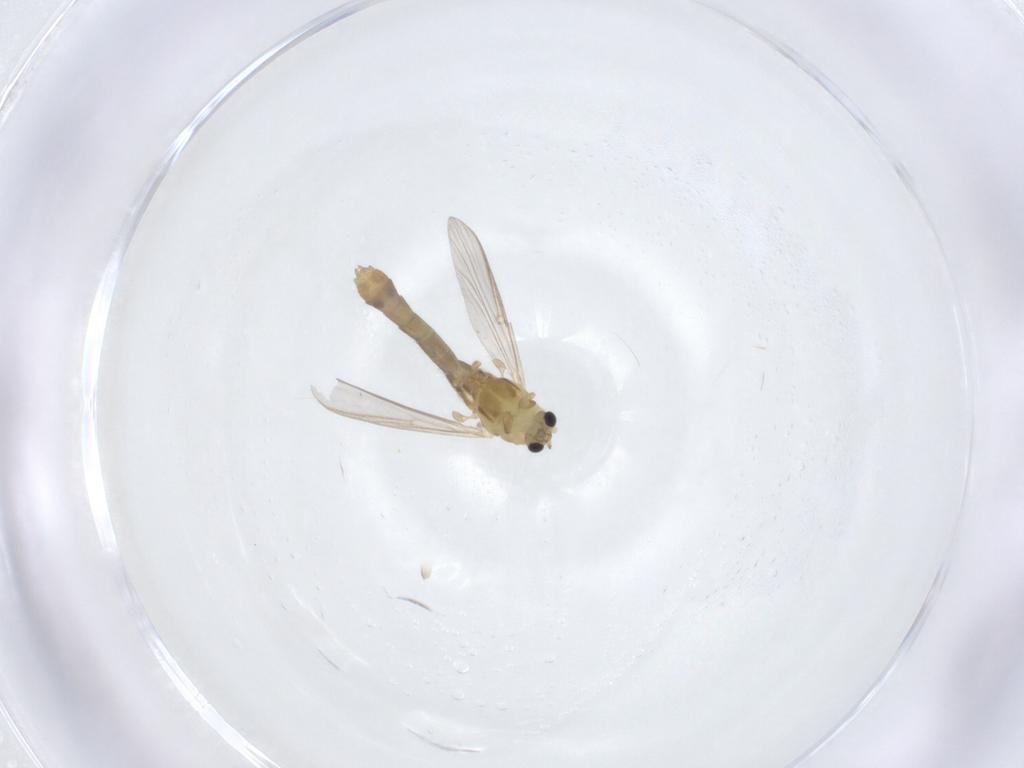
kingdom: Animalia
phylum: Arthropoda
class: Insecta
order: Diptera
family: Chironomidae
